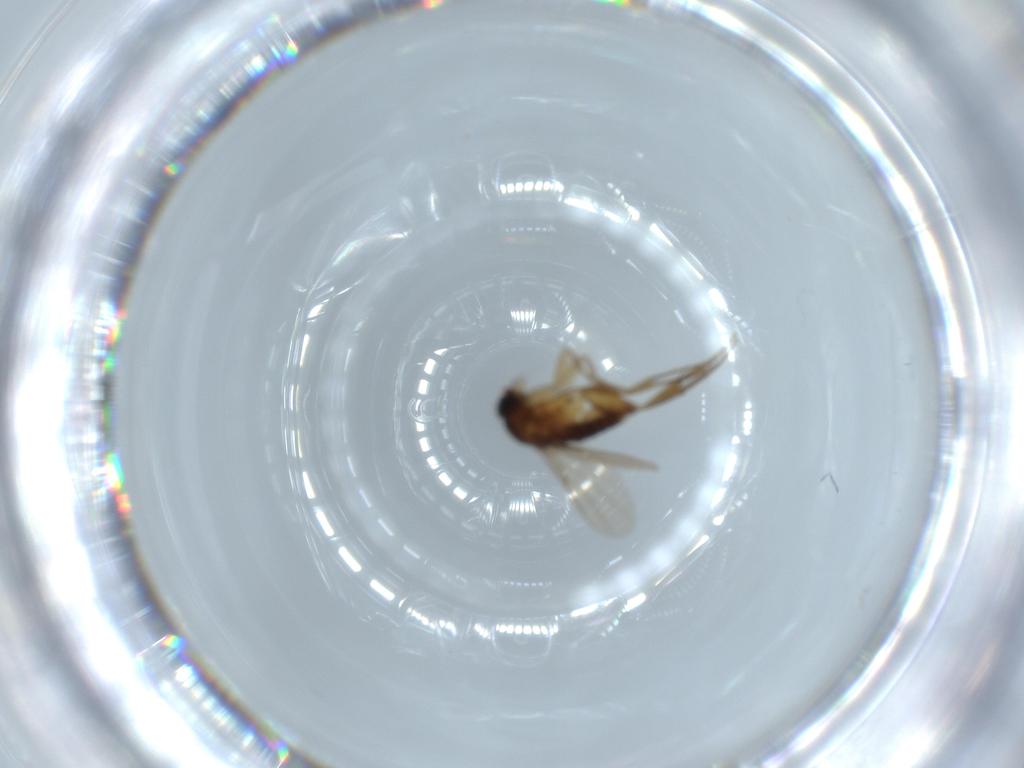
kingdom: Animalia
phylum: Arthropoda
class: Insecta
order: Diptera
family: Phoridae
